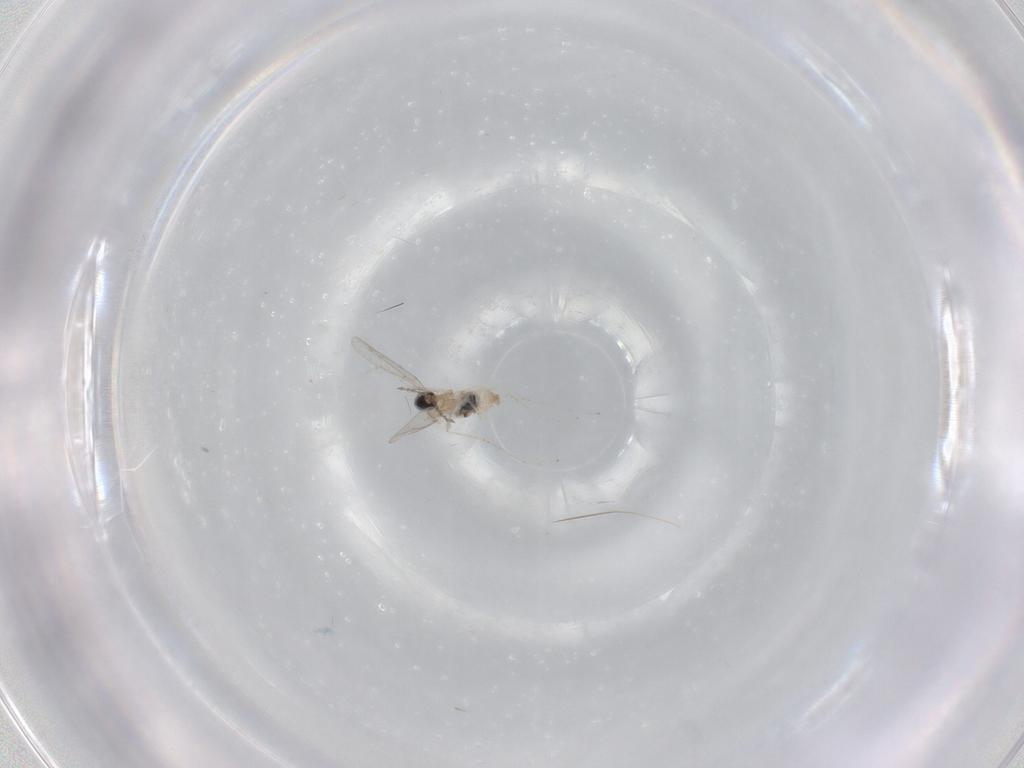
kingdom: Animalia
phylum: Arthropoda
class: Insecta
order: Diptera
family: Cecidomyiidae
